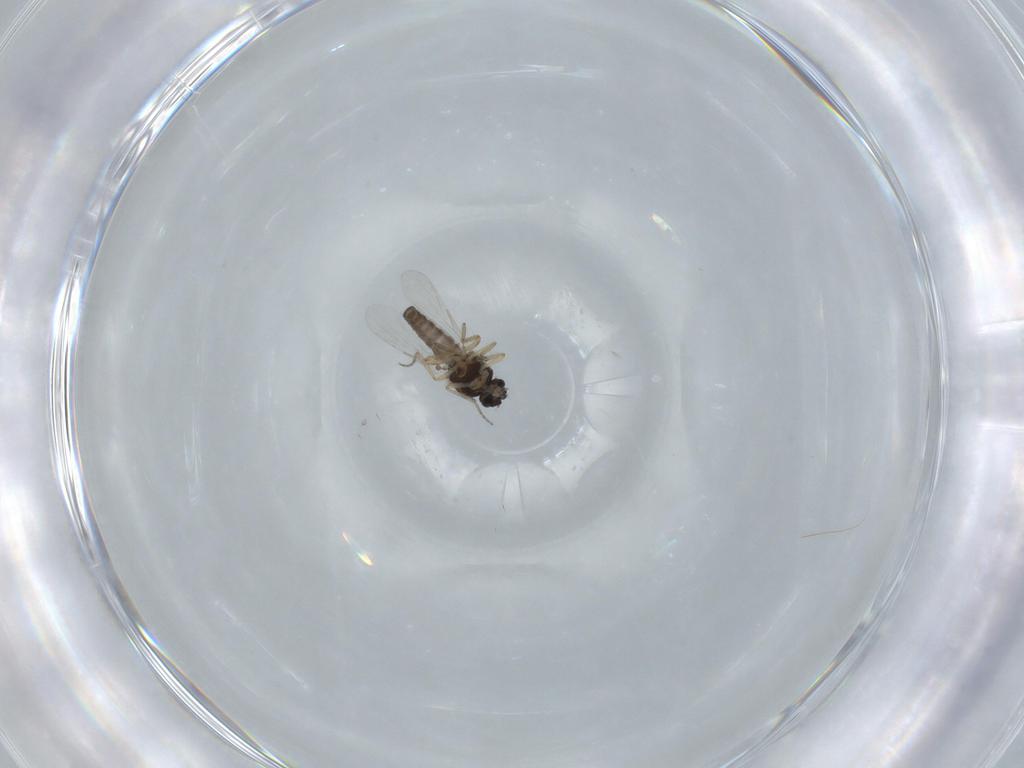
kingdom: Animalia
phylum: Arthropoda
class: Insecta
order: Diptera
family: Ceratopogonidae
